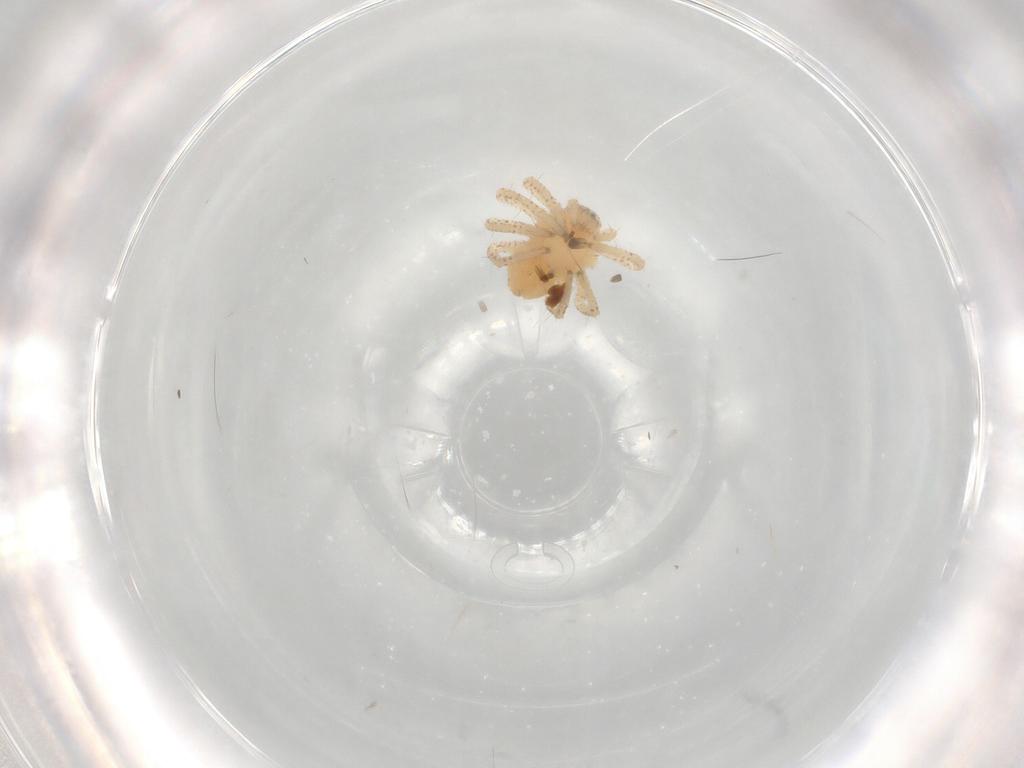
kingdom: Animalia
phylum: Arthropoda
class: Arachnida
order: Araneae
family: Philodromidae
